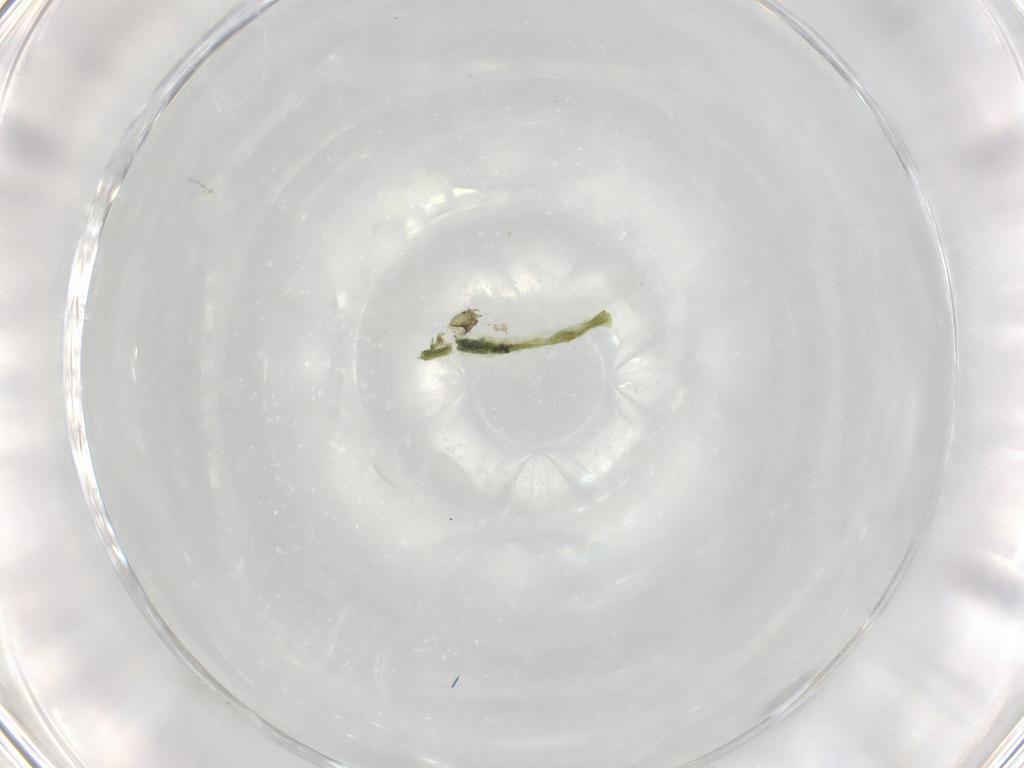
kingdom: Animalia
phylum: Arthropoda
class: Insecta
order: Diptera
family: Chironomidae
